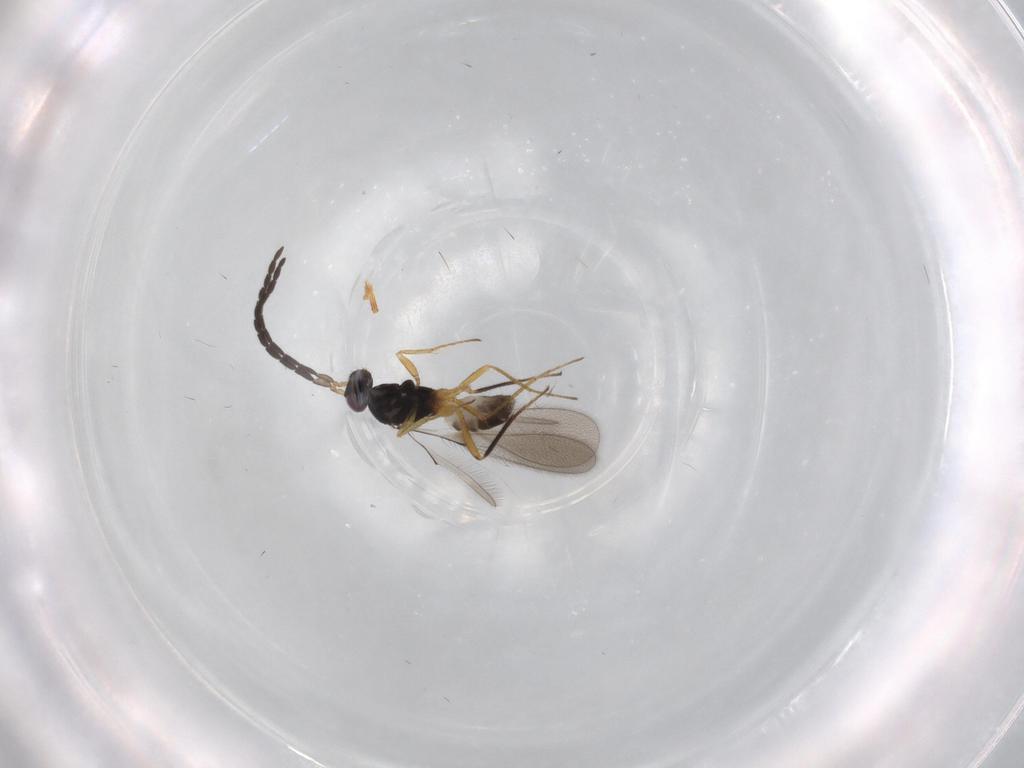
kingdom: Animalia
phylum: Arthropoda
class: Insecta
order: Hymenoptera
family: Mymaridae
